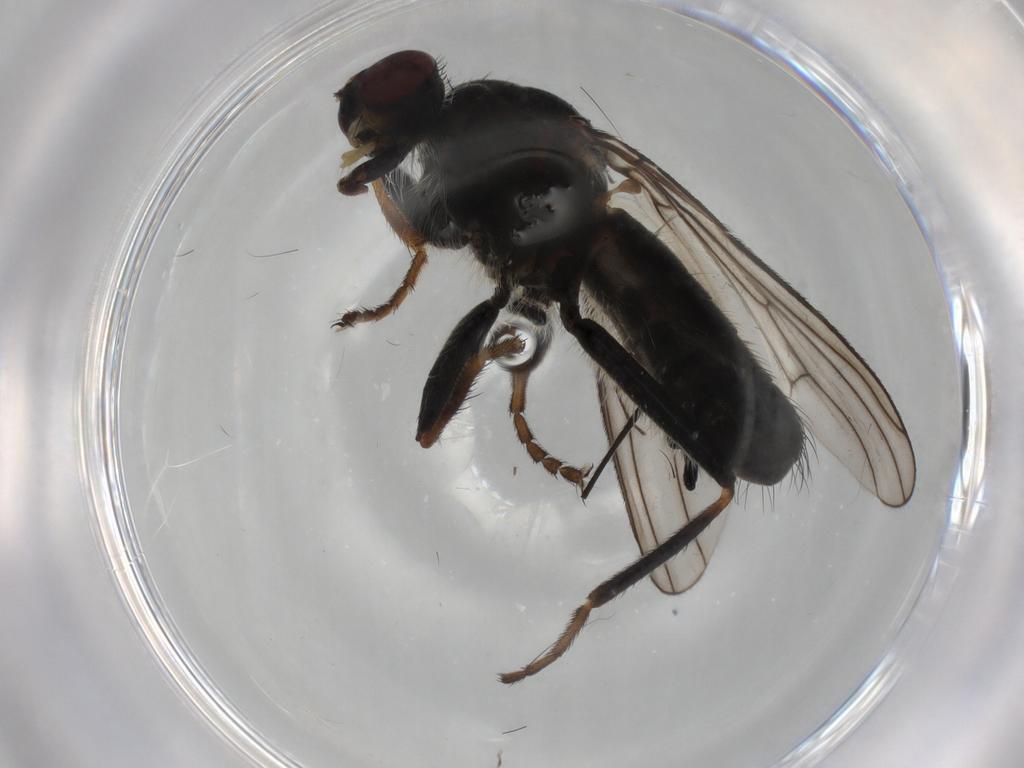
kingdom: Animalia
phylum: Arthropoda
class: Insecta
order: Diptera
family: Scathophagidae
